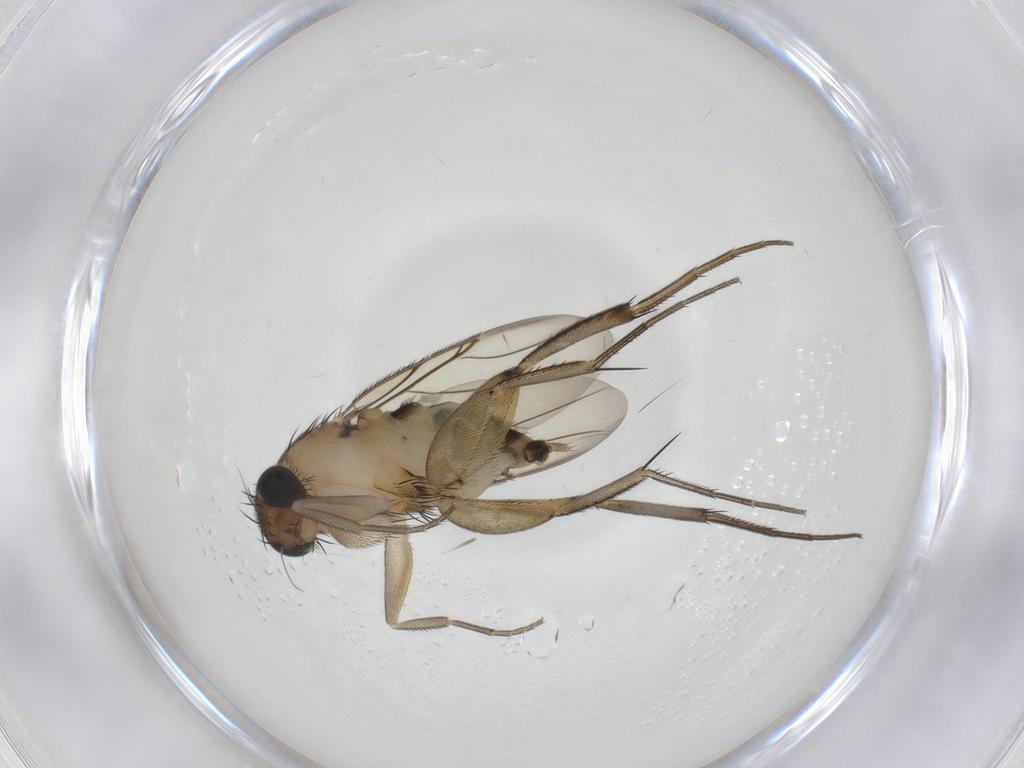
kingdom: Animalia
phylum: Arthropoda
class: Insecta
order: Diptera
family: Phoridae
